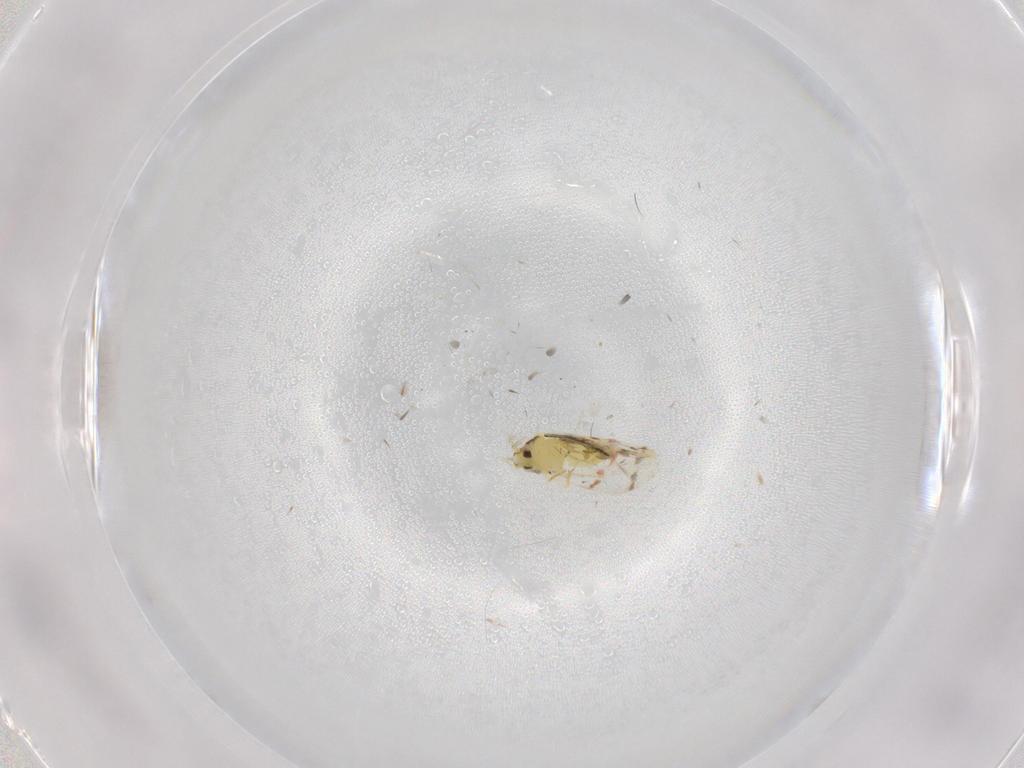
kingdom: Animalia
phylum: Arthropoda
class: Insecta
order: Hemiptera
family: Aleyrodidae
